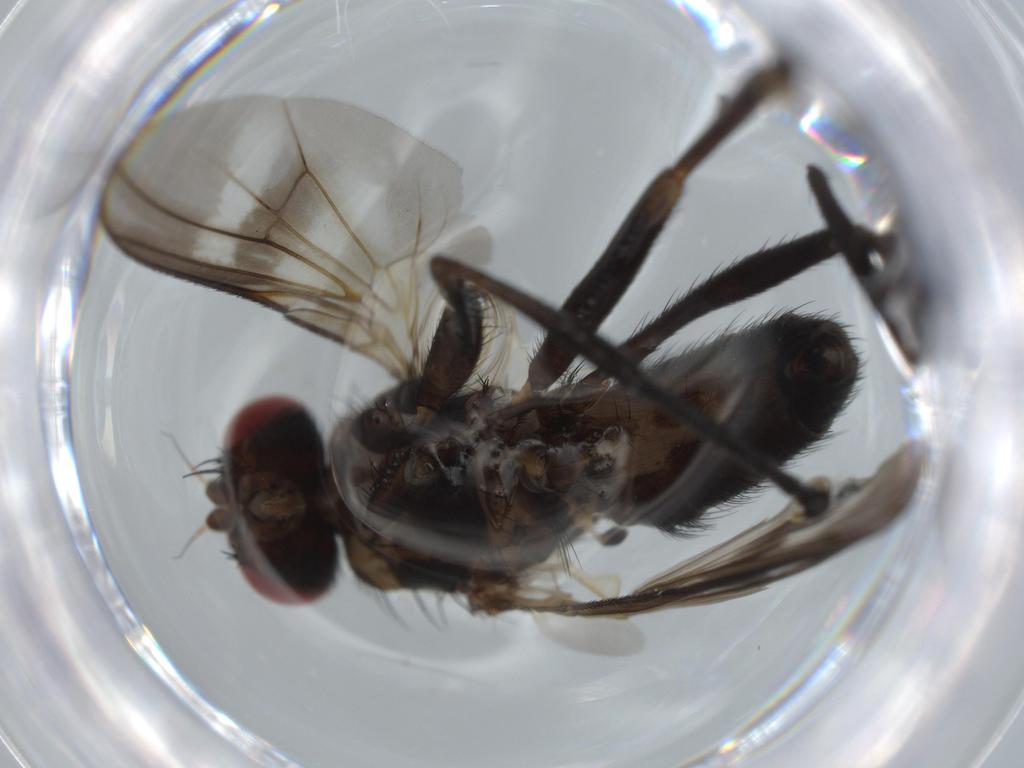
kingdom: Animalia
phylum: Arthropoda
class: Insecta
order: Diptera
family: Calliphoridae
